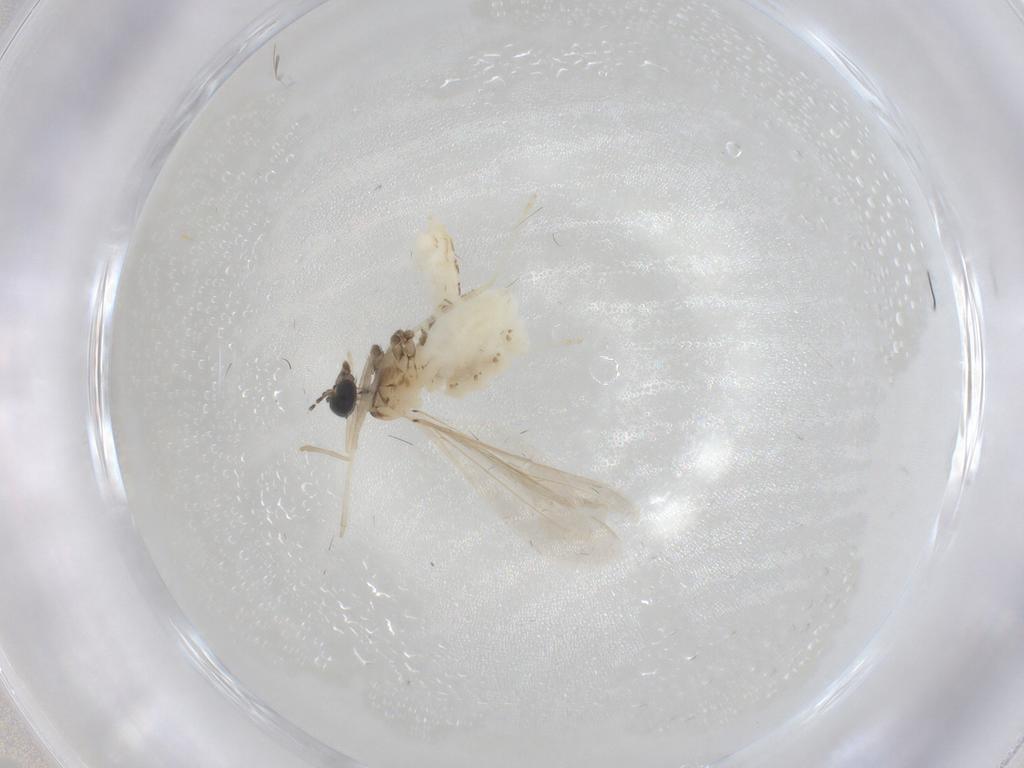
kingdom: Animalia
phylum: Arthropoda
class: Insecta
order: Diptera
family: Cecidomyiidae
